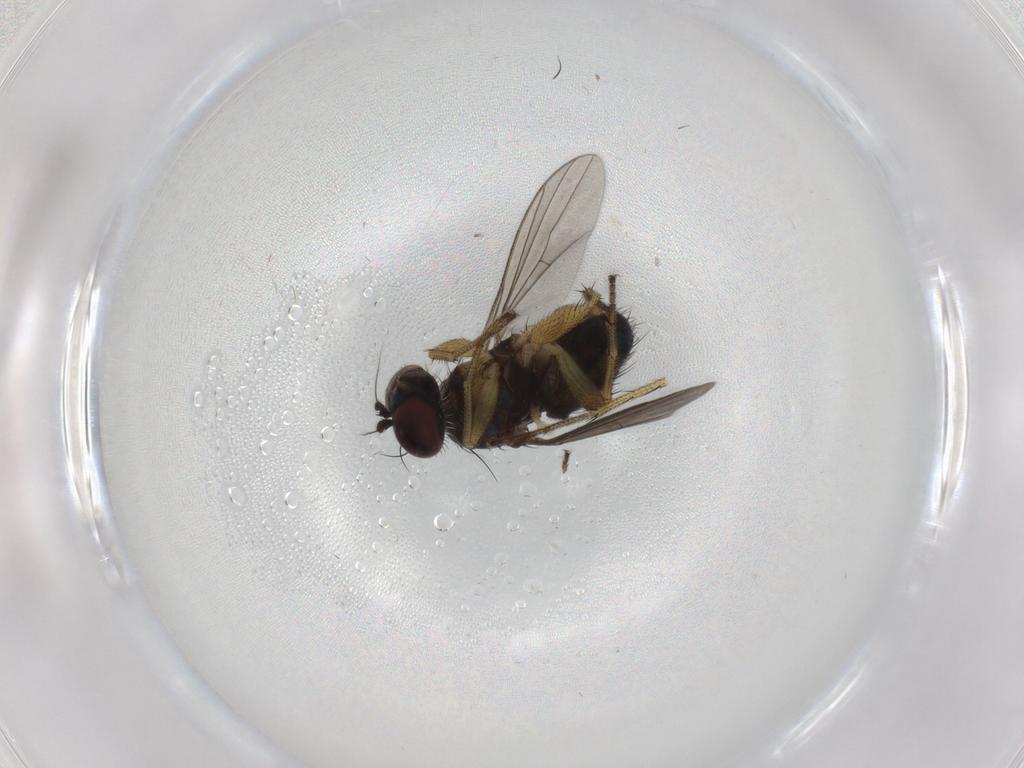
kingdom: Animalia
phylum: Arthropoda
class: Insecta
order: Diptera
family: Dolichopodidae
